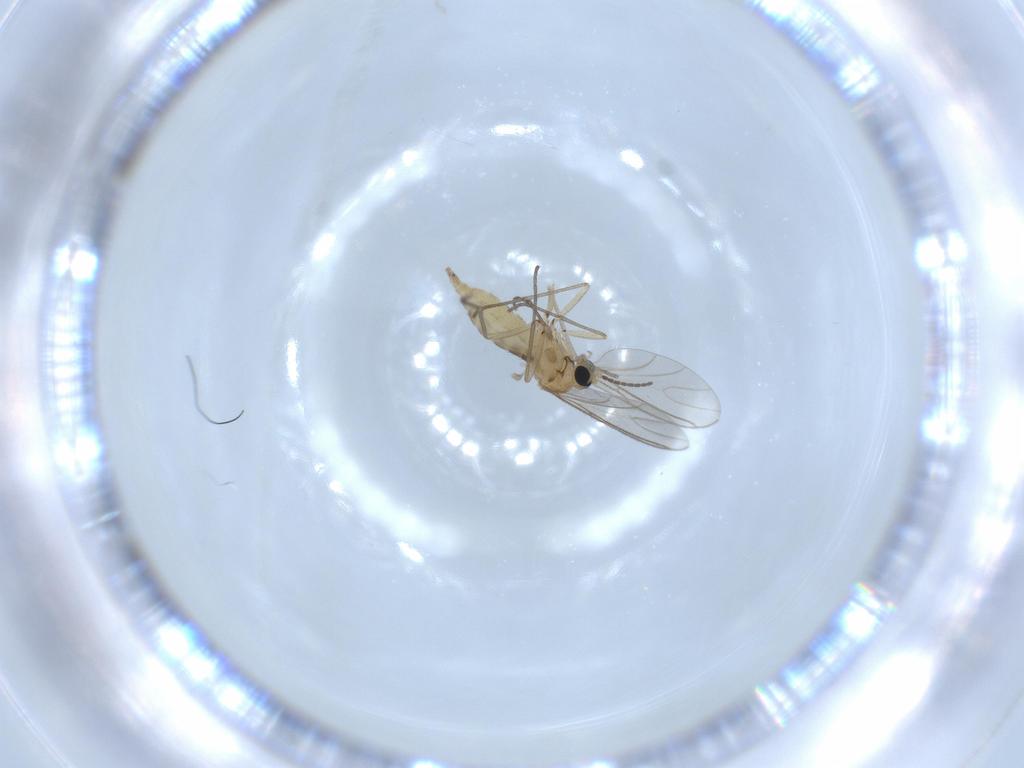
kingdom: Animalia
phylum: Arthropoda
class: Insecta
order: Diptera
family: Sciaridae
